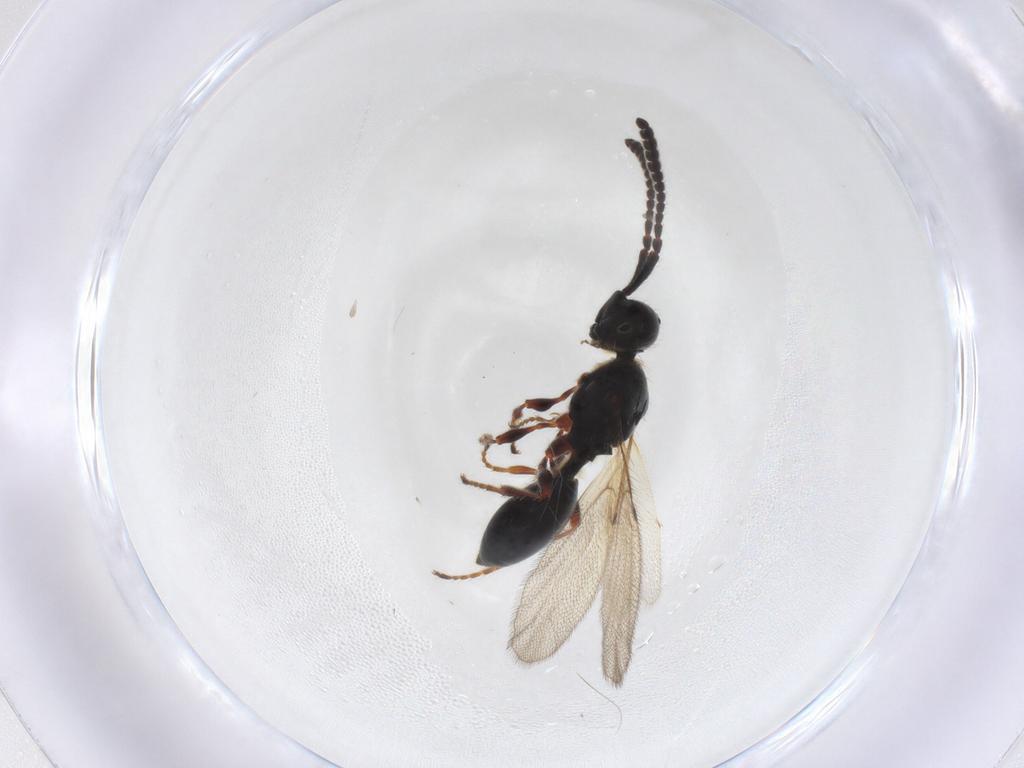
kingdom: Animalia
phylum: Arthropoda
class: Insecta
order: Hymenoptera
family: Diapriidae
